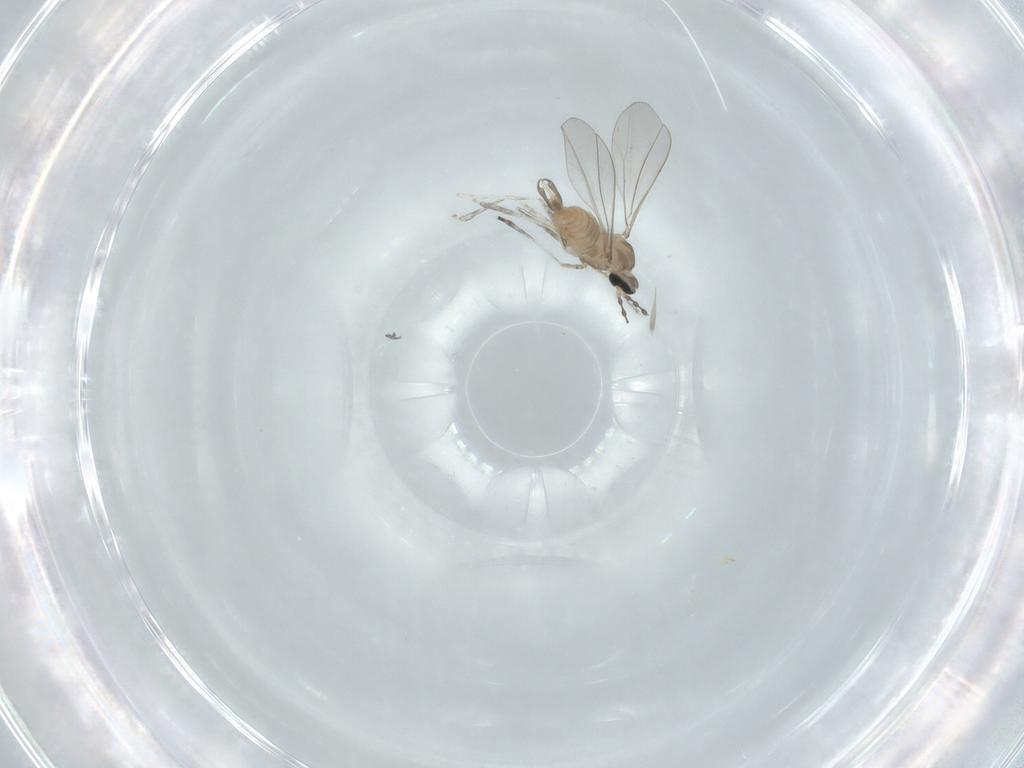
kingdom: Animalia
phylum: Arthropoda
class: Insecta
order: Diptera
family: Cecidomyiidae
